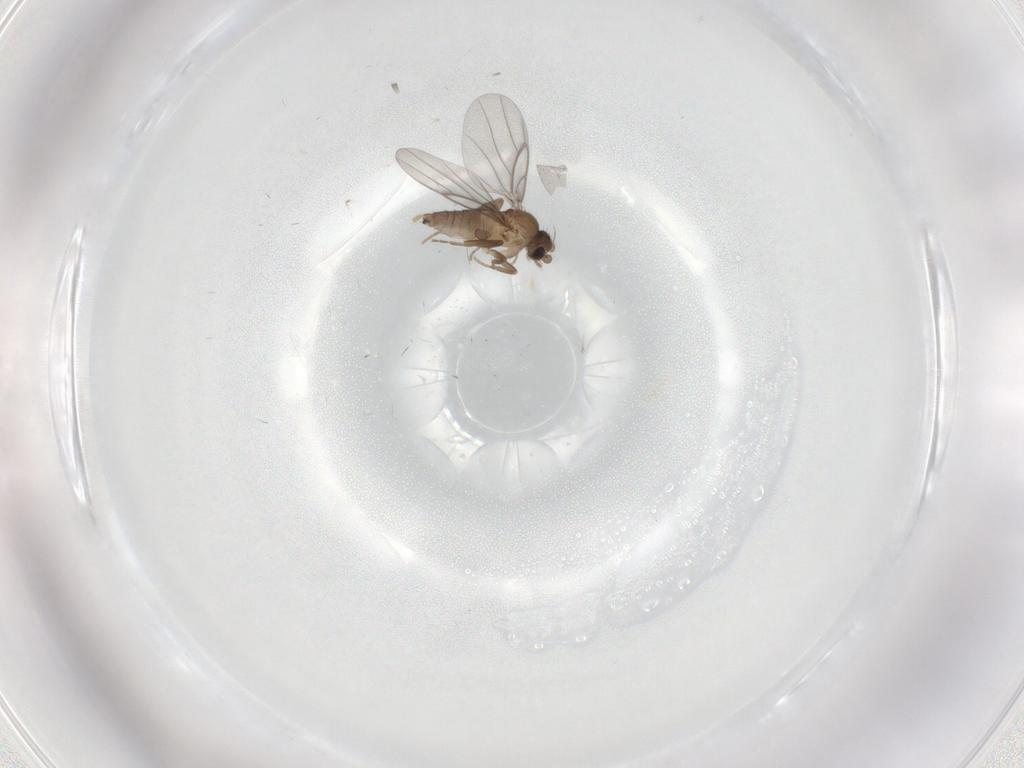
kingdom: Animalia
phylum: Arthropoda
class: Insecta
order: Diptera
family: Sciaridae
